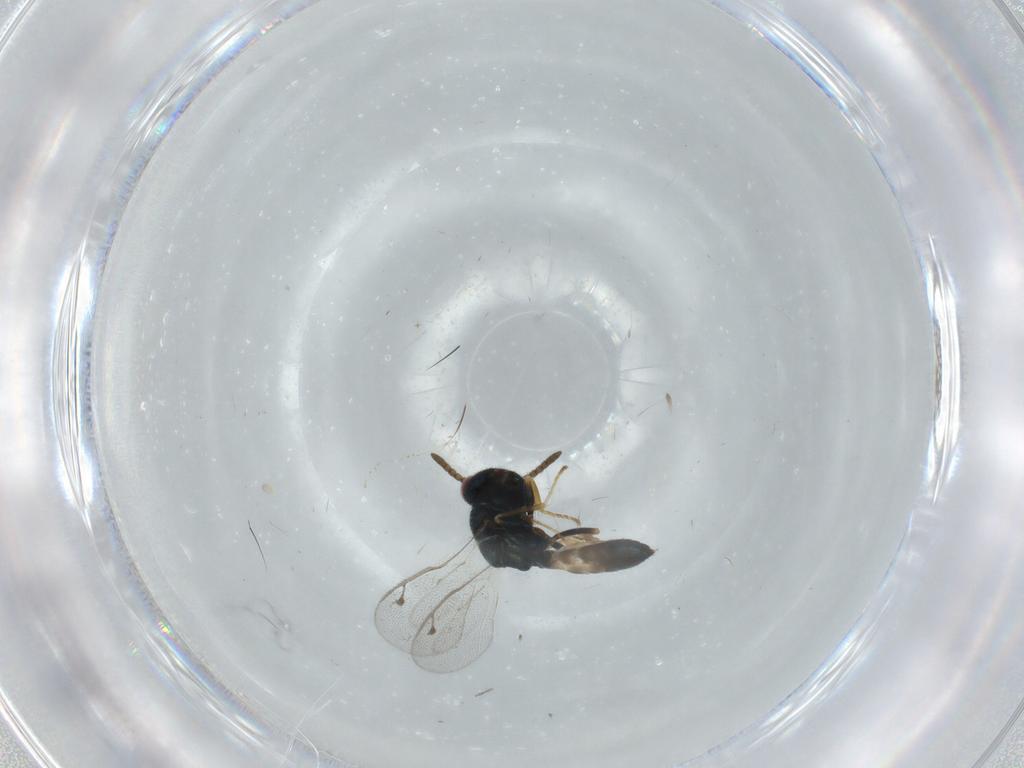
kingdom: Animalia
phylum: Arthropoda
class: Insecta
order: Hymenoptera
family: Pteromalidae
